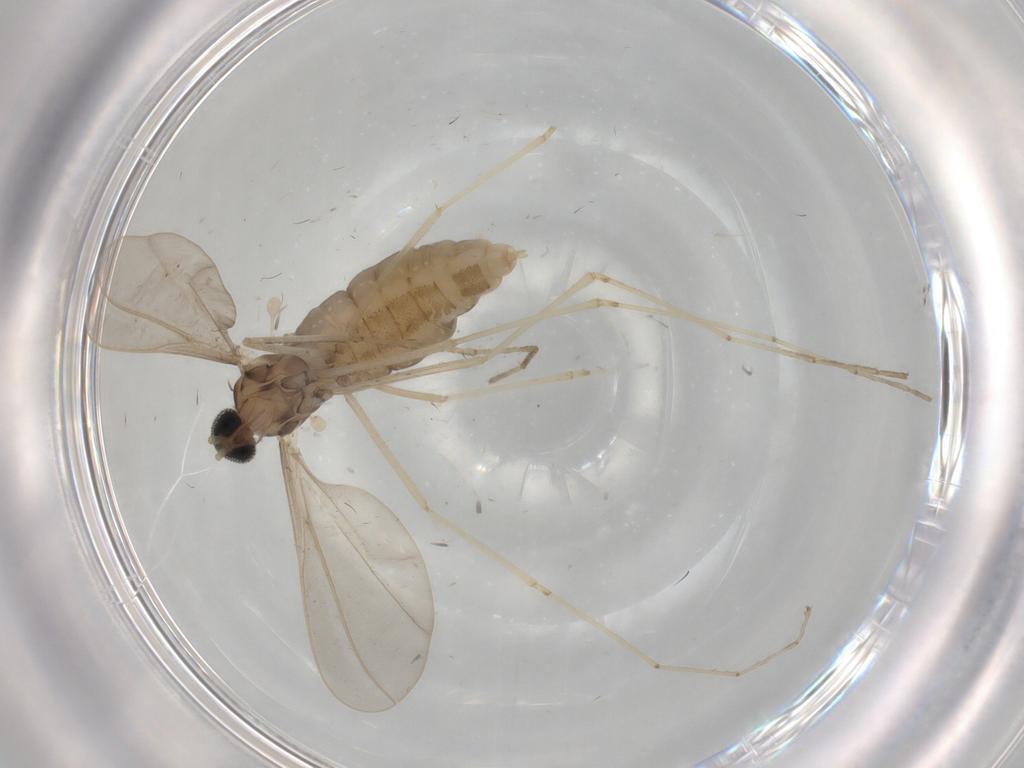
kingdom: Animalia
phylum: Arthropoda
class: Insecta
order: Diptera
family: Cecidomyiidae
